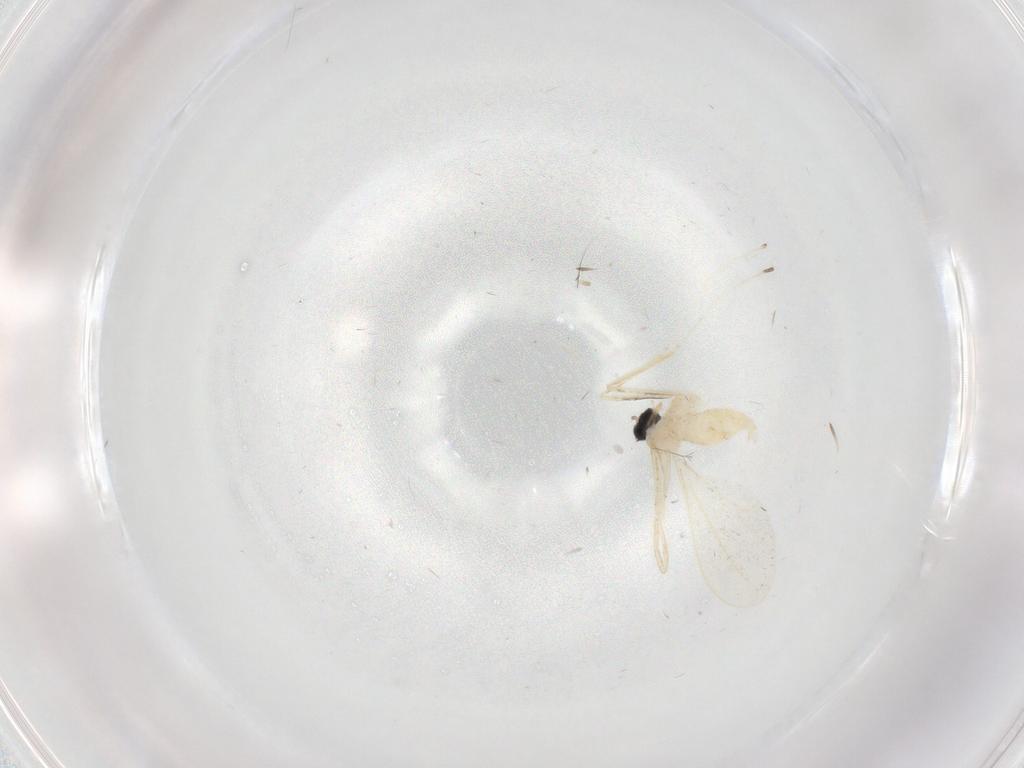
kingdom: Animalia
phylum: Arthropoda
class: Insecta
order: Diptera
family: Cecidomyiidae
